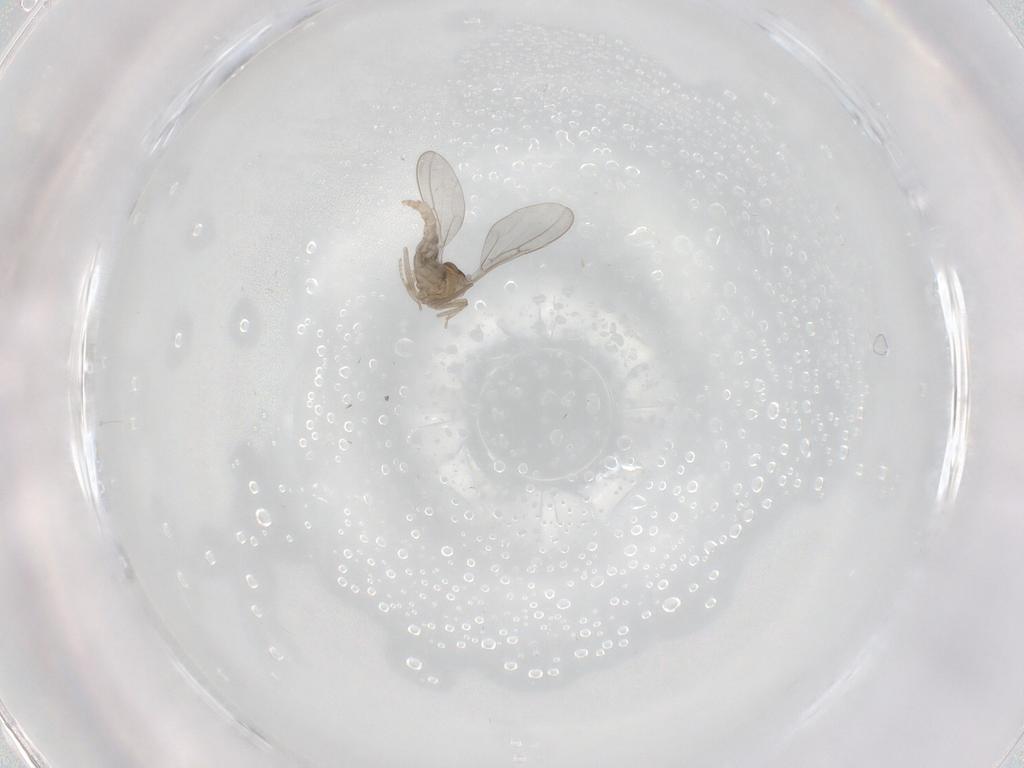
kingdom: Animalia
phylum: Arthropoda
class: Insecta
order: Diptera
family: Cecidomyiidae
